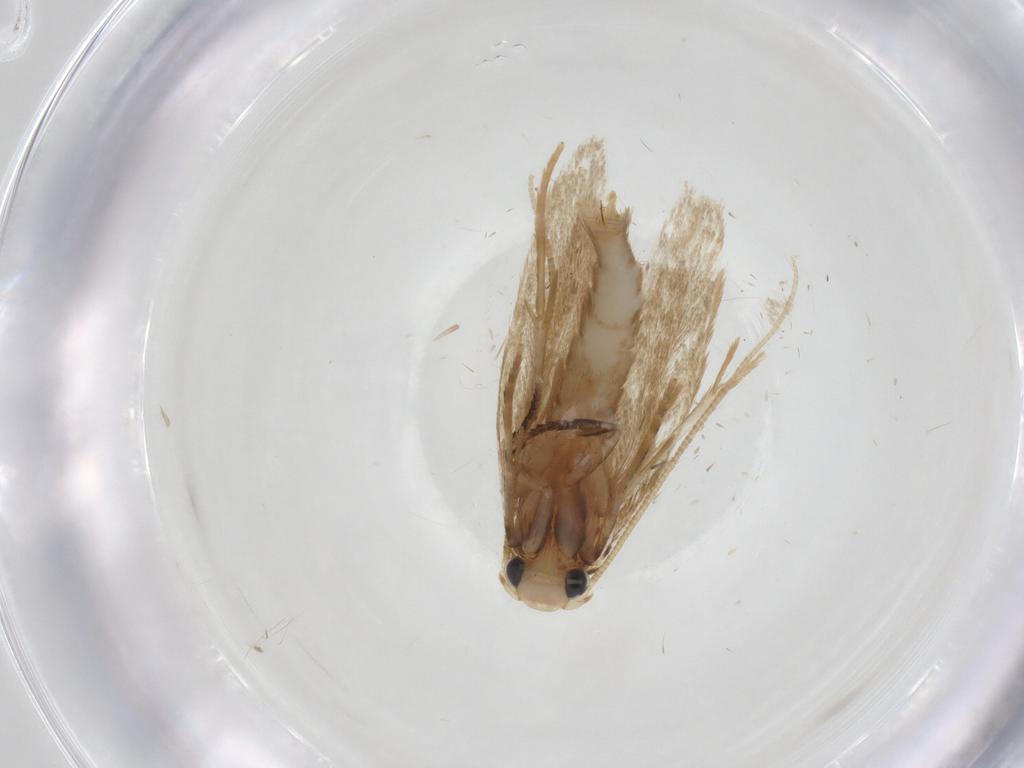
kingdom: Animalia
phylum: Arthropoda
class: Insecta
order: Lepidoptera
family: Tineidae
